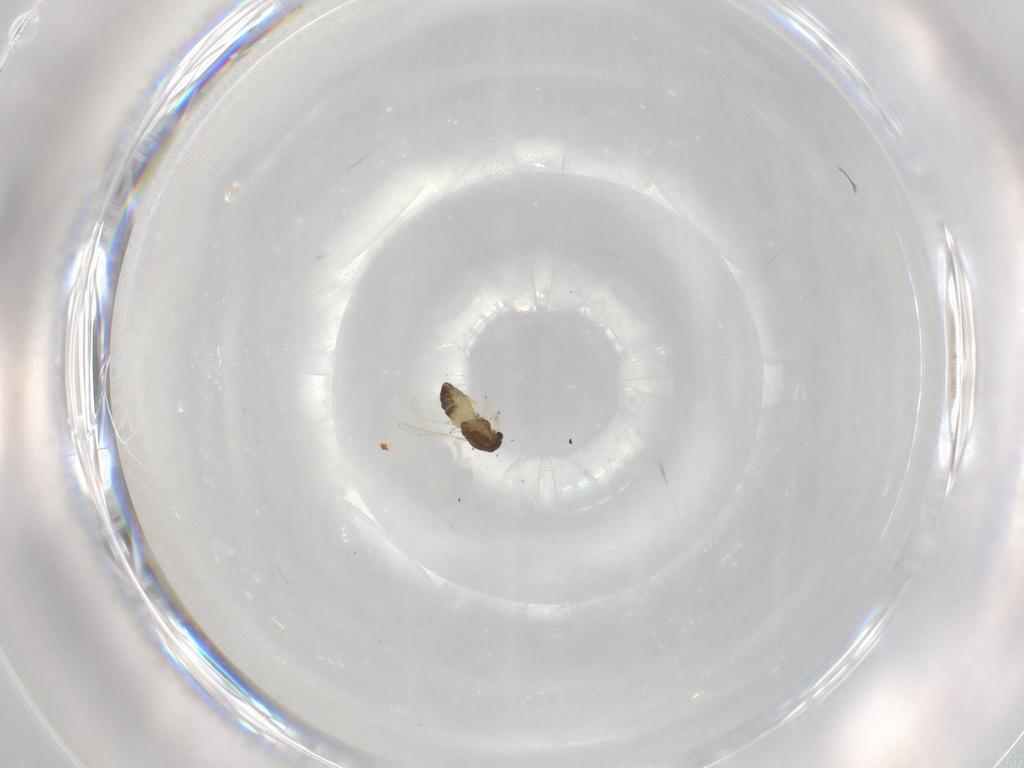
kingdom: Animalia
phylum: Arthropoda
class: Insecta
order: Diptera
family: Chironomidae
